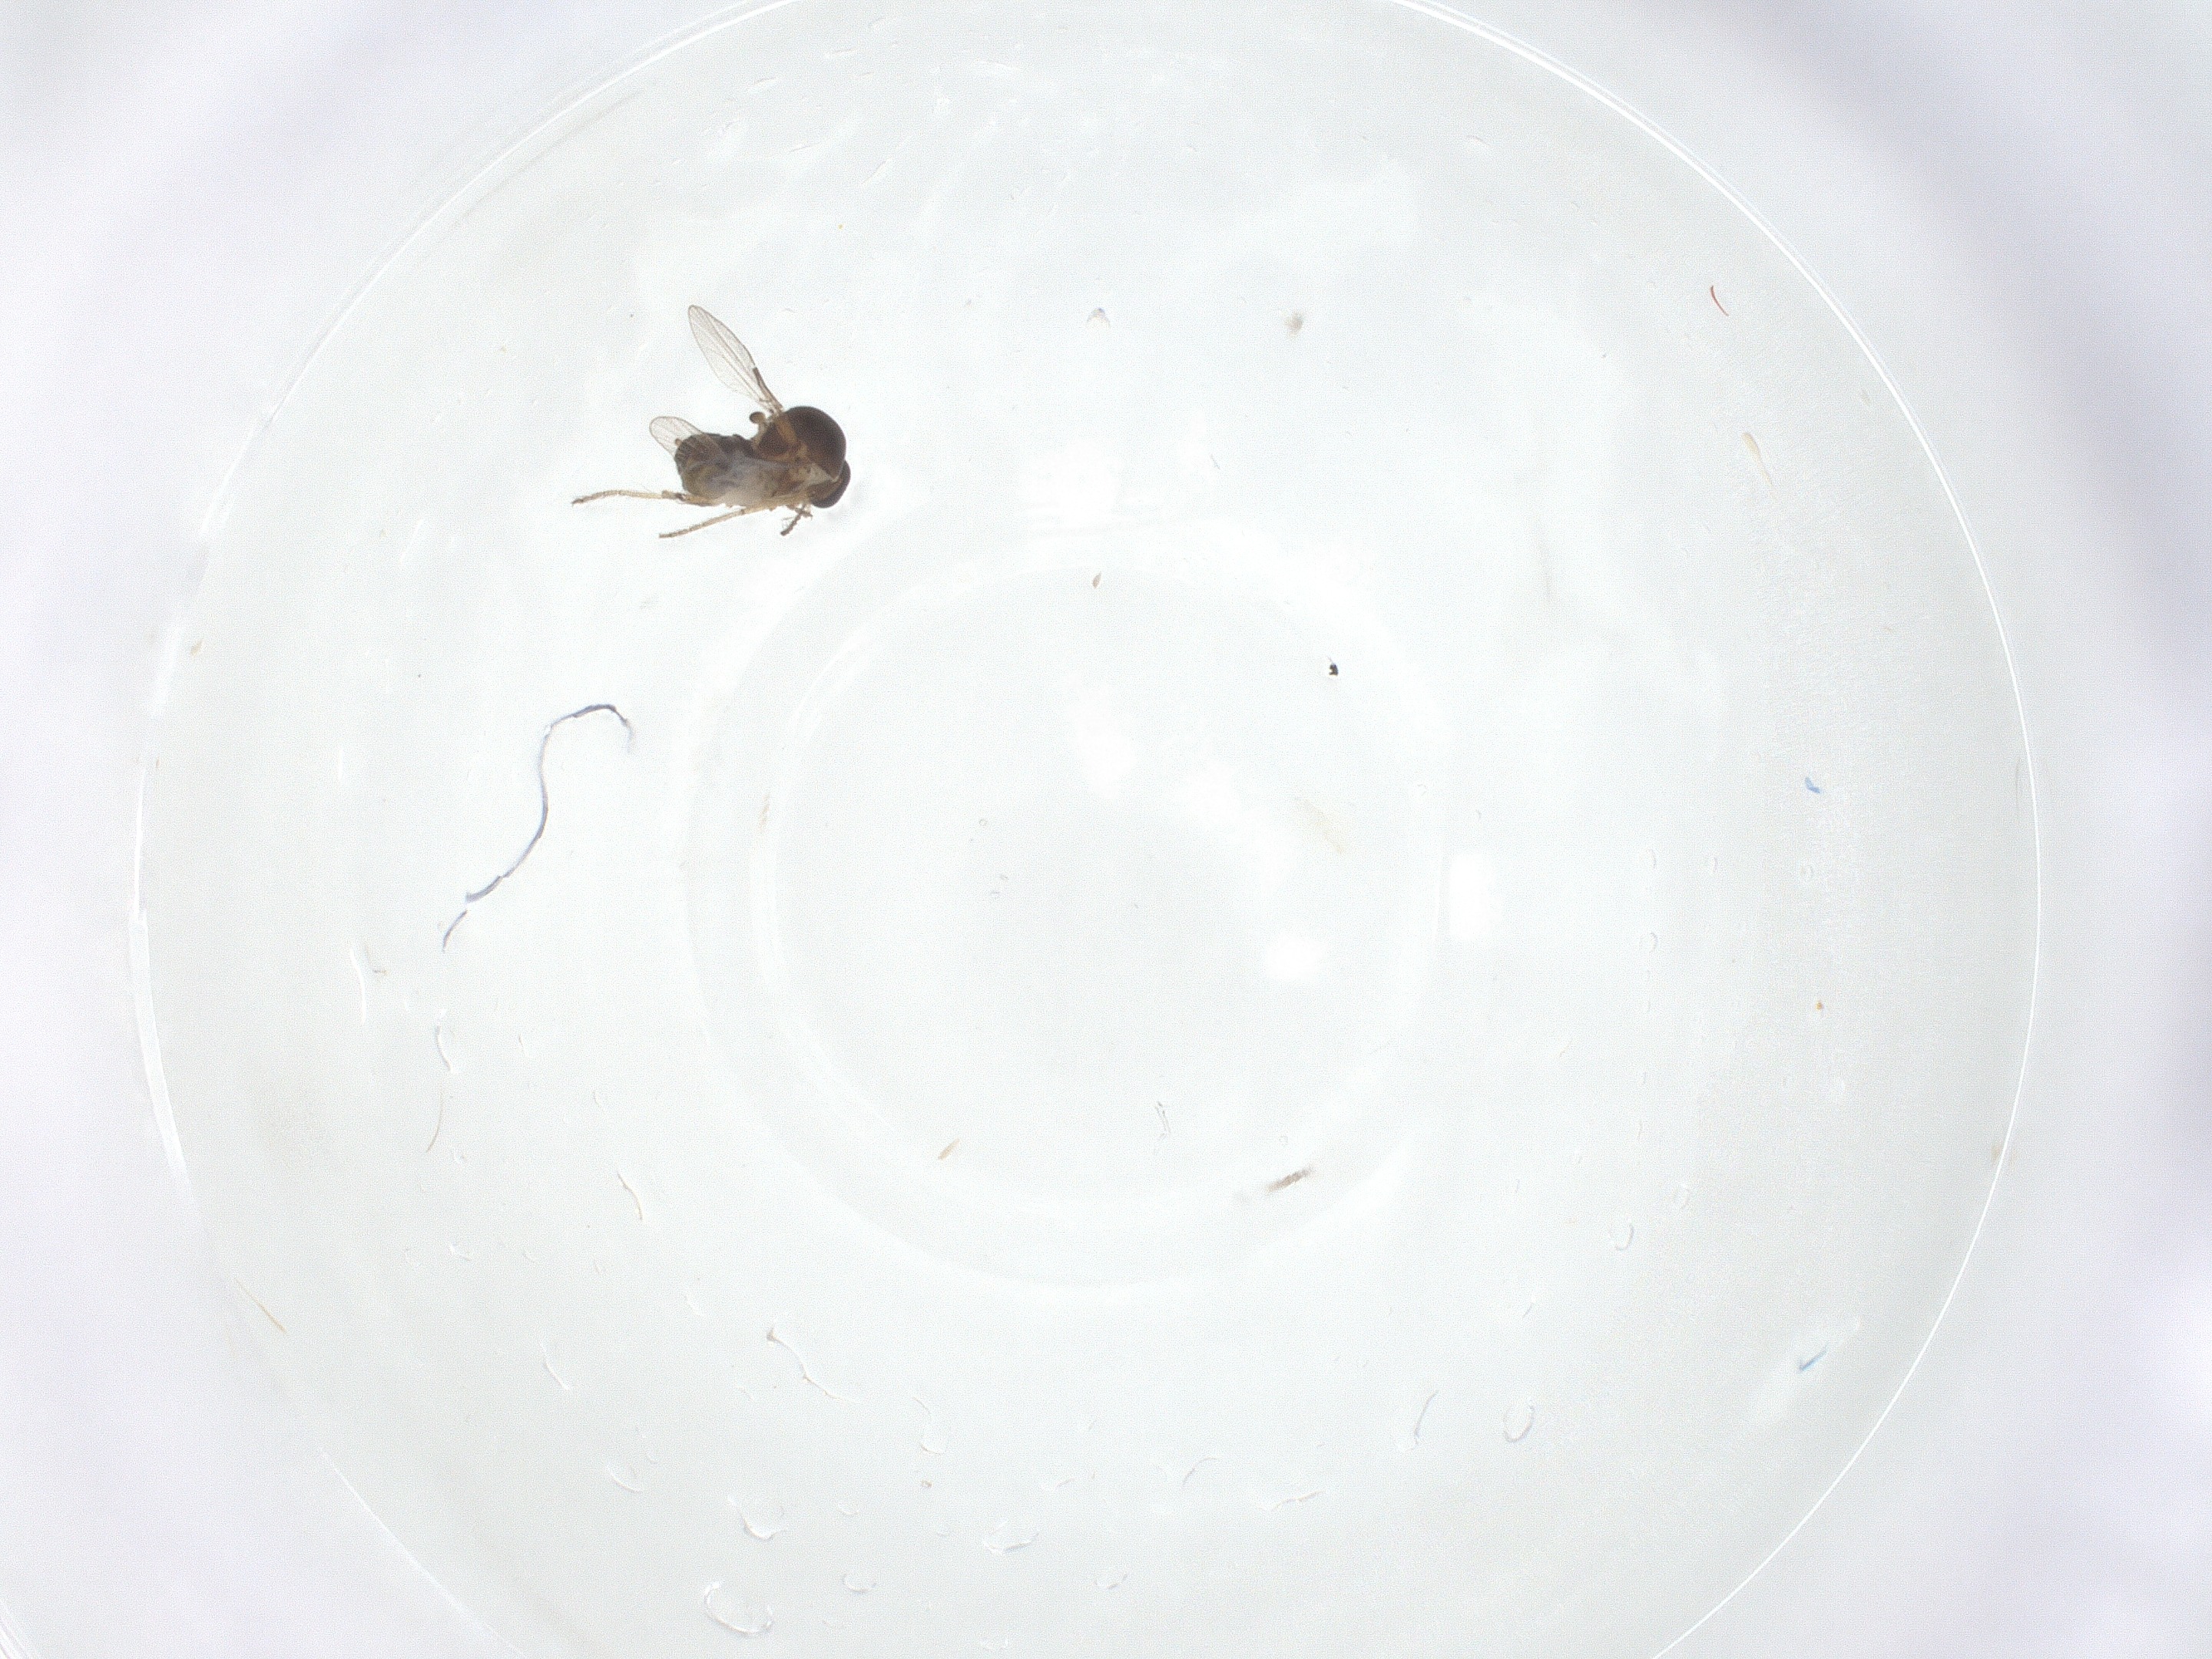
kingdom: Animalia
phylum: Arthropoda
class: Insecta
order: Diptera
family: Ceratopogonidae
